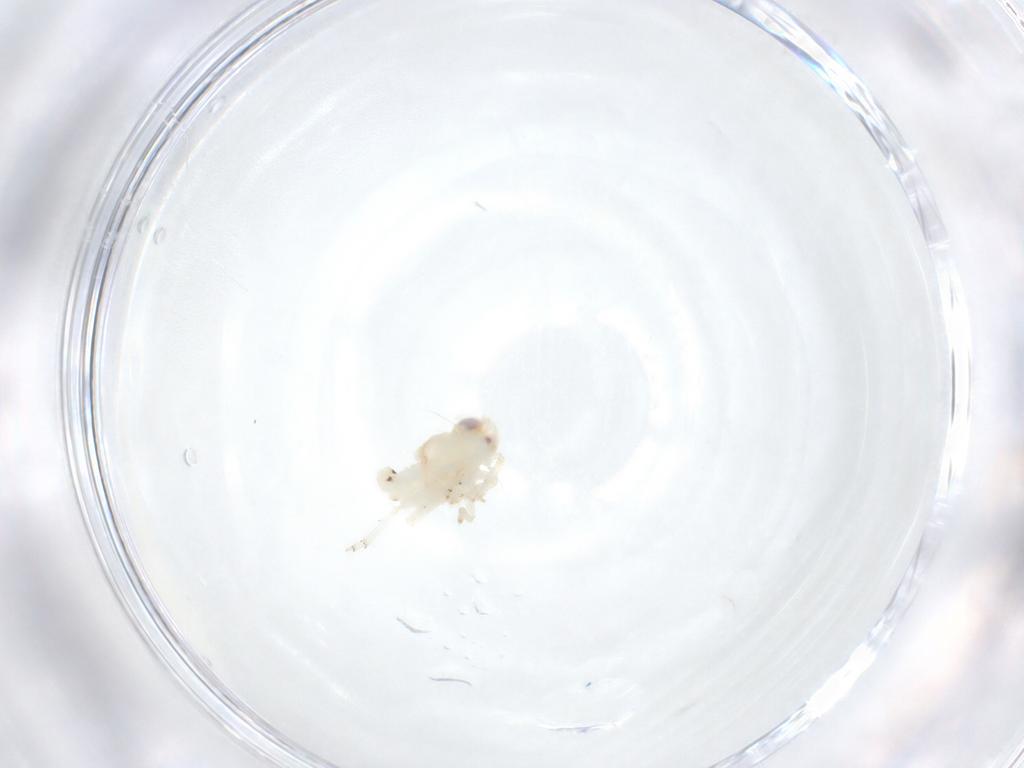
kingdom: Animalia
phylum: Arthropoda
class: Insecta
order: Hemiptera
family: Nogodinidae
